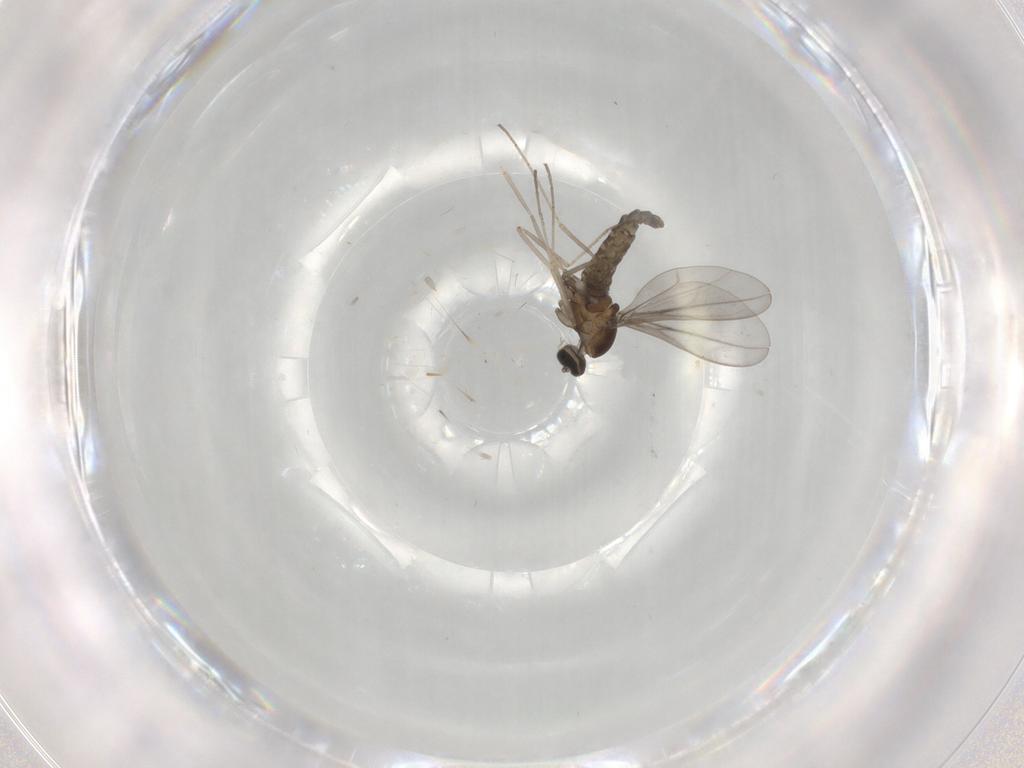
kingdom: Animalia
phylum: Arthropoda
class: Insecta
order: Diptera
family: Cecidomyiidae
